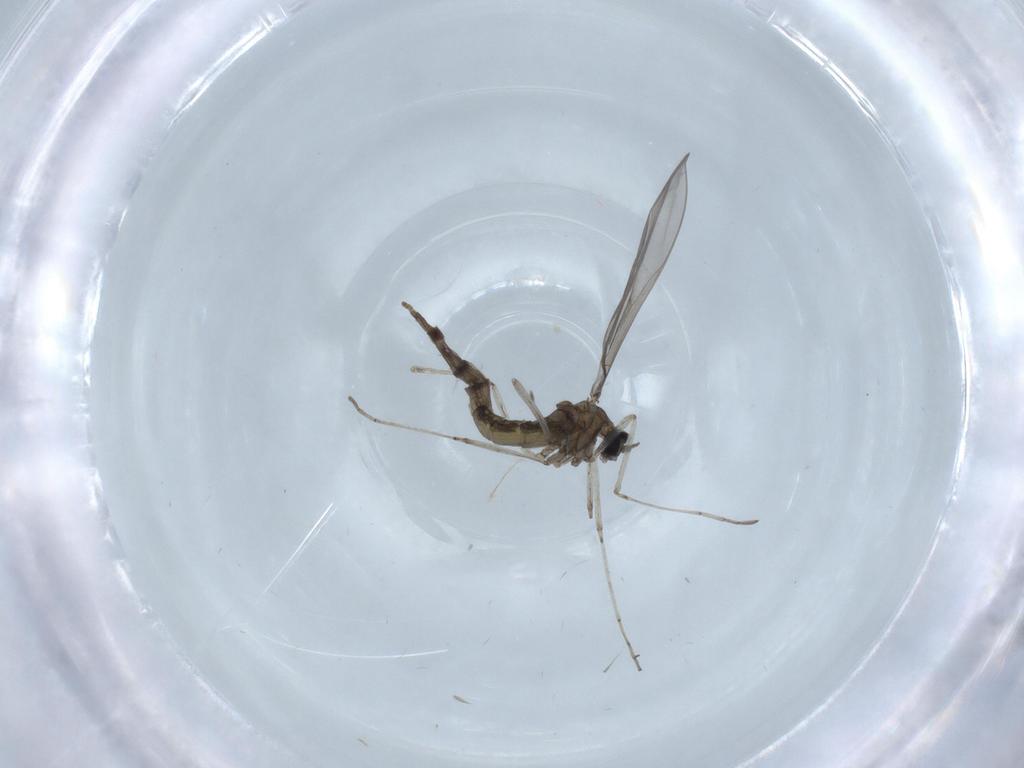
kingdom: Animalia
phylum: Arthropoda
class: Insecta
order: Diptera
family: Cecidomyiidae
